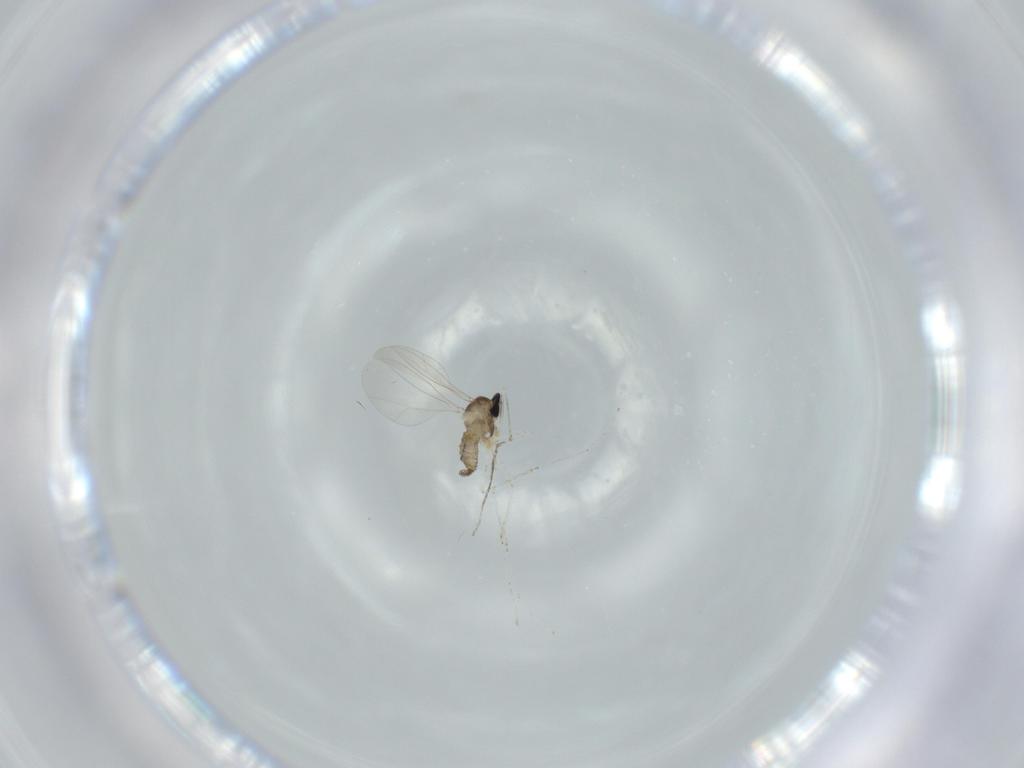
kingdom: Animalia
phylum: Arthropoda
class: Insecta
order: Diptera
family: Cecidomyiidae
